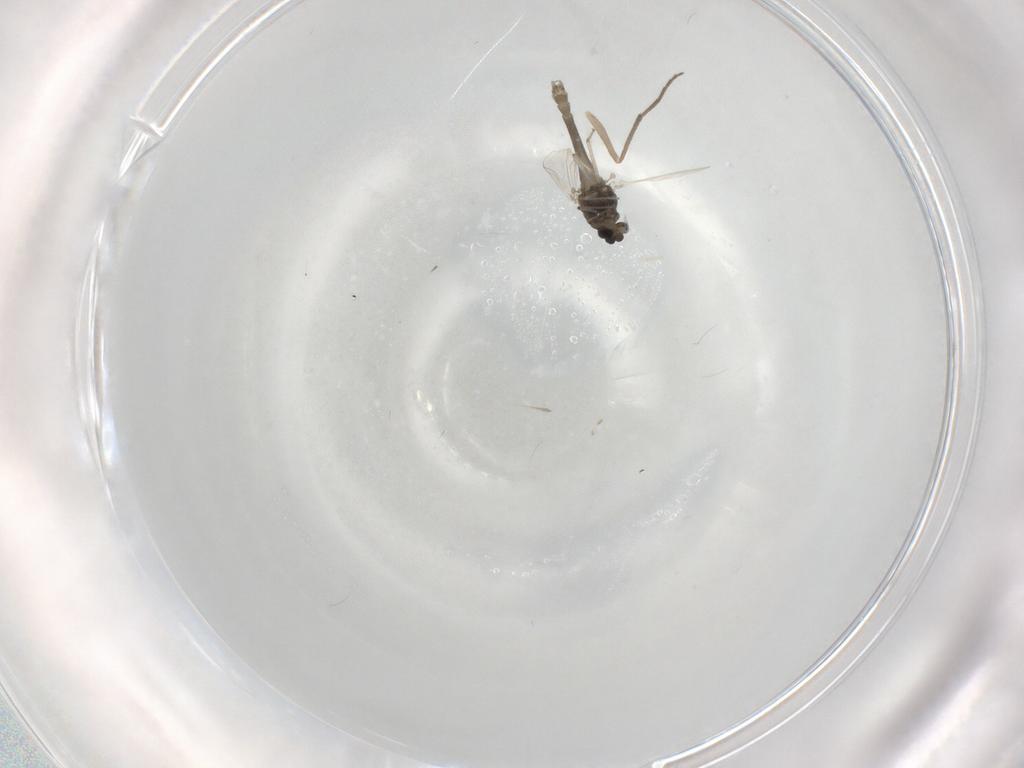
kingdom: Animalia
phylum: Arthropoda
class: Insecta
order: Diptera
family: Chironomidae
